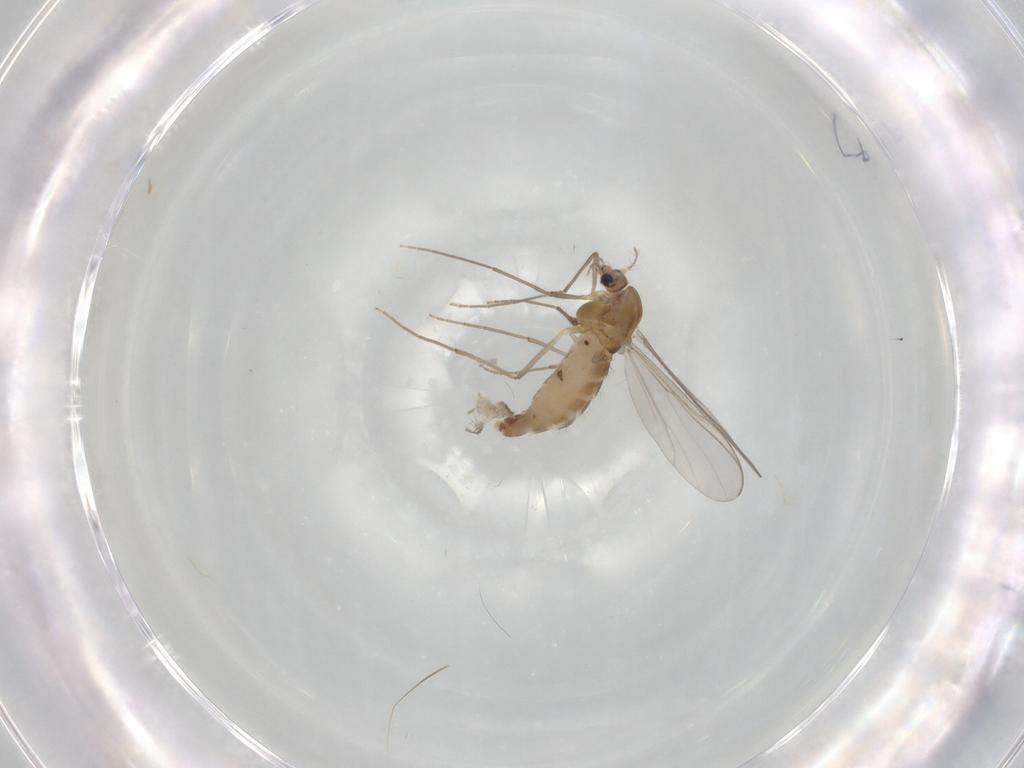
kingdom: Animalia
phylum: Arthropoda
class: Insecta
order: Diptera
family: Chironomidae
